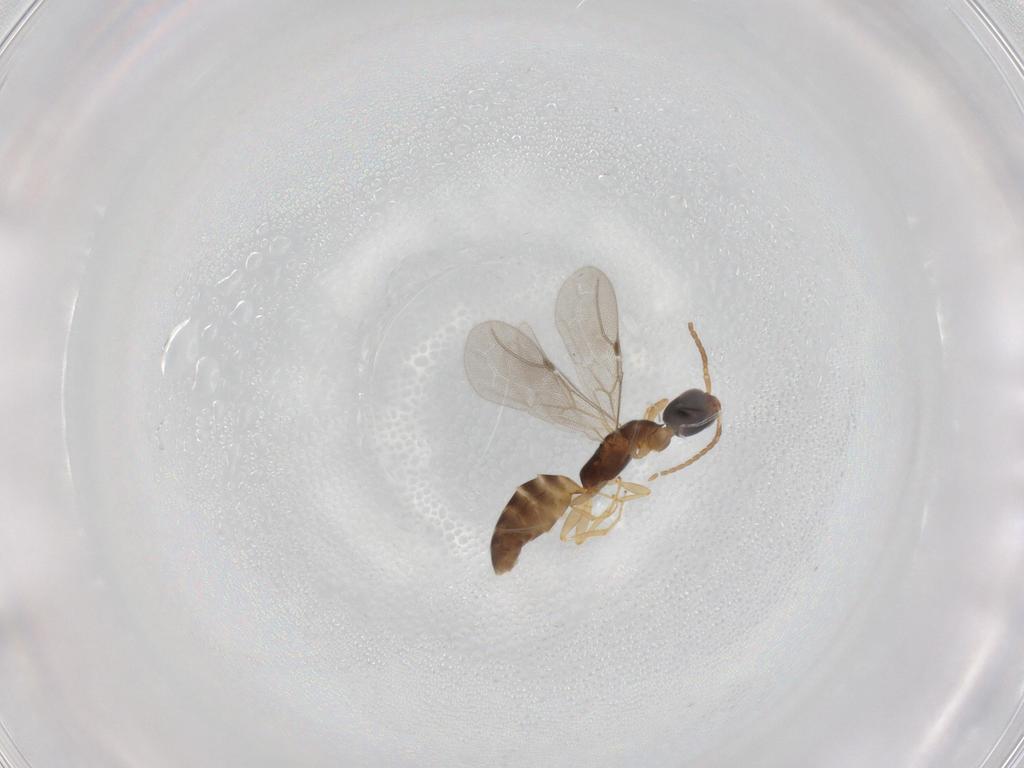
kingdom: Animalia
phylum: Arthropoda
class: Insecta
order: Hymenoptera
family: Bethylidae
